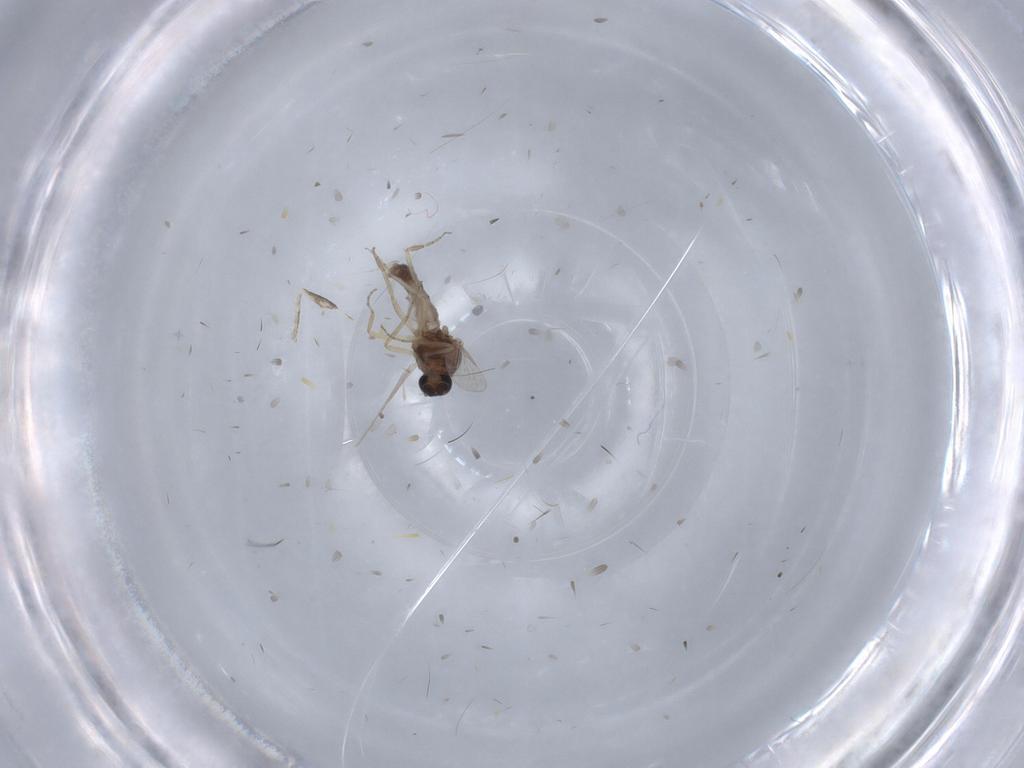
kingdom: Animalia
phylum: Arthropoda
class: Insecta
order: Diptera
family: Ceratopogonidae
